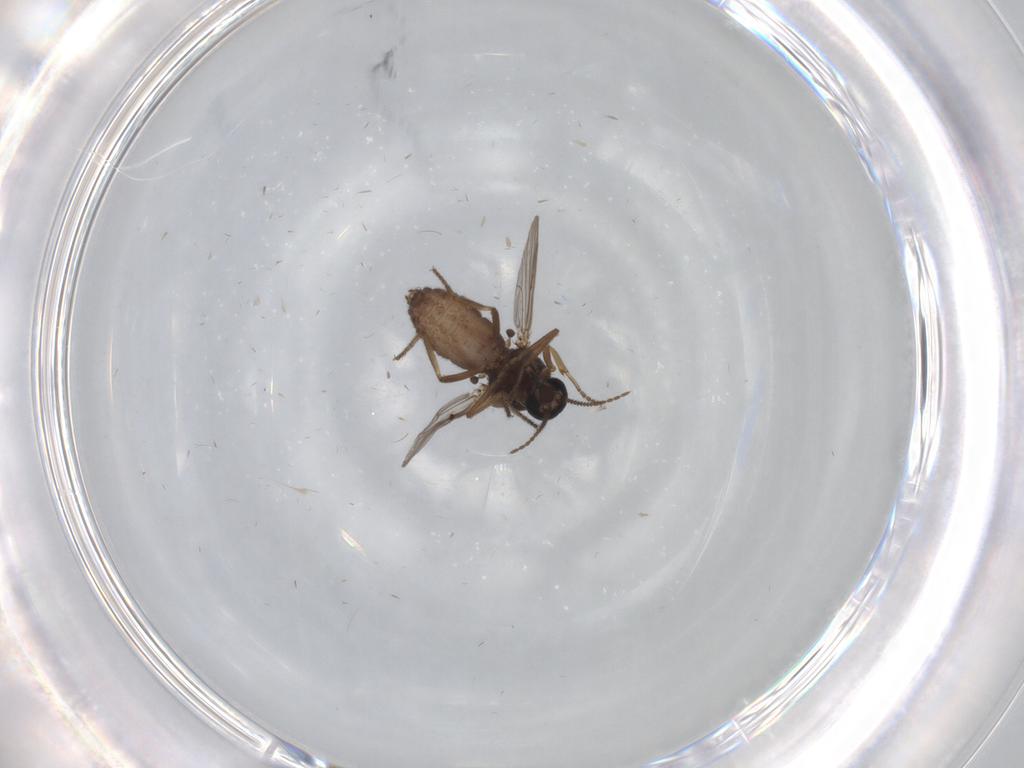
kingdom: Animalia
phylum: Arthropoda
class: Insecta
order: Diptera
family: Ceratopogonidae
